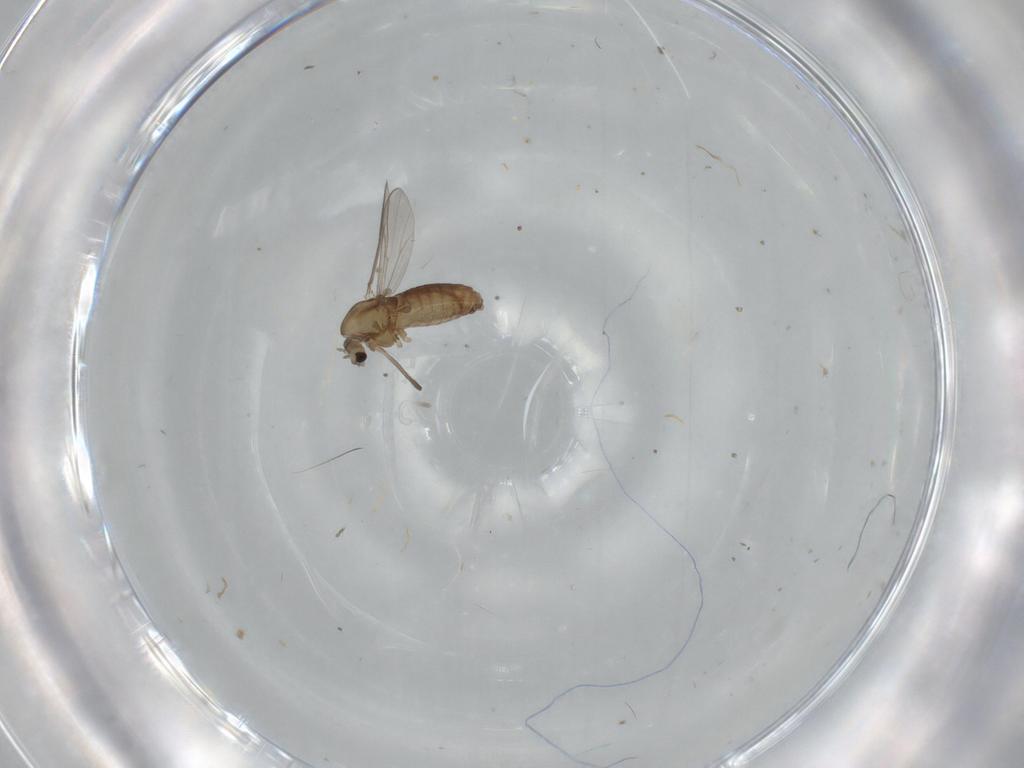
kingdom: Animalia
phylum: Arthropoda
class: Insecta
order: Diptera
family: Chironomidae
